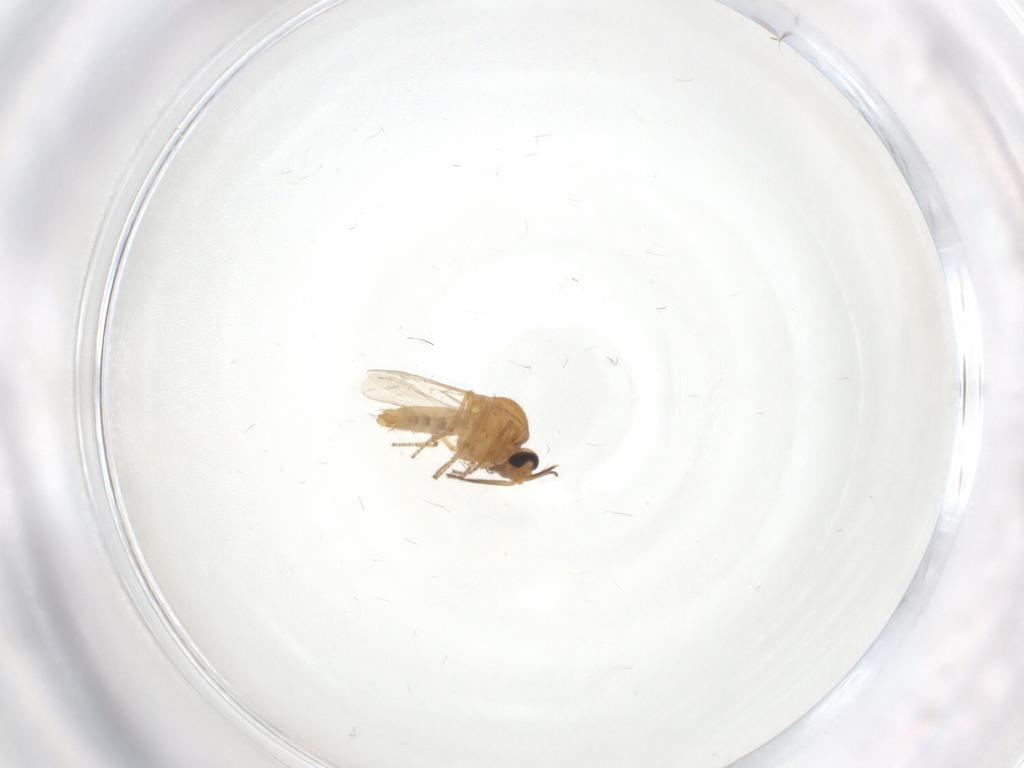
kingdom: Animalia
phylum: Arthropoda
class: Insecta
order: Diptera
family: Ceratopogonidae
